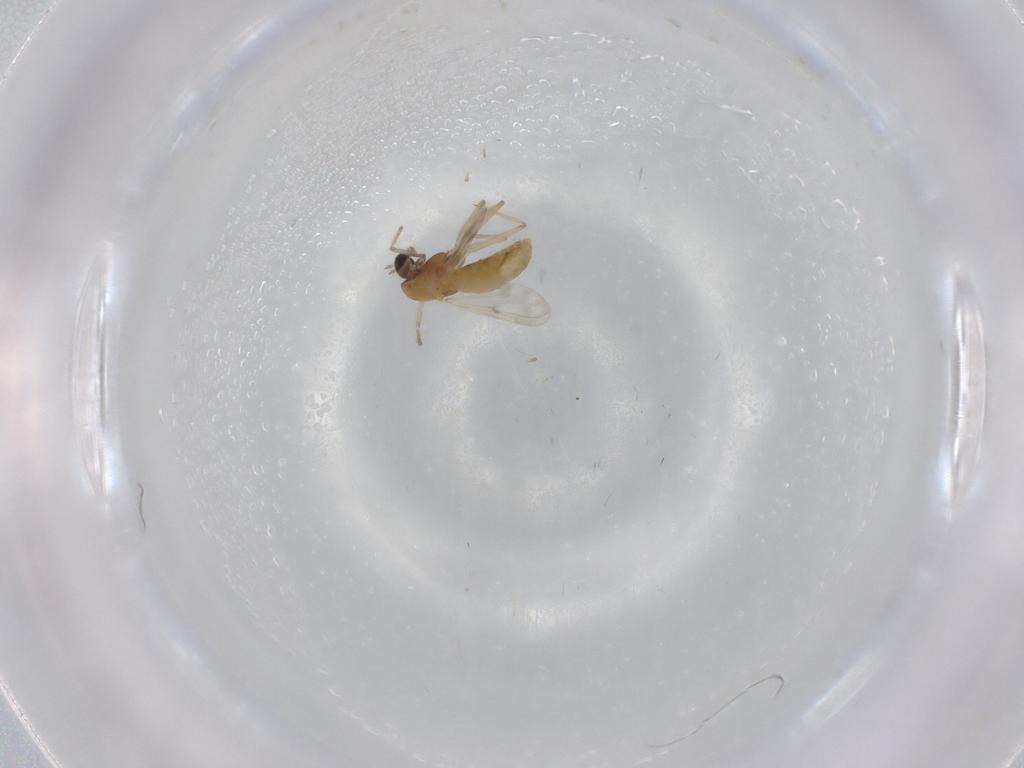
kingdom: Animalia
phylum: Arthropoda
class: Insecta
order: Diptera
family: Chironomidae
